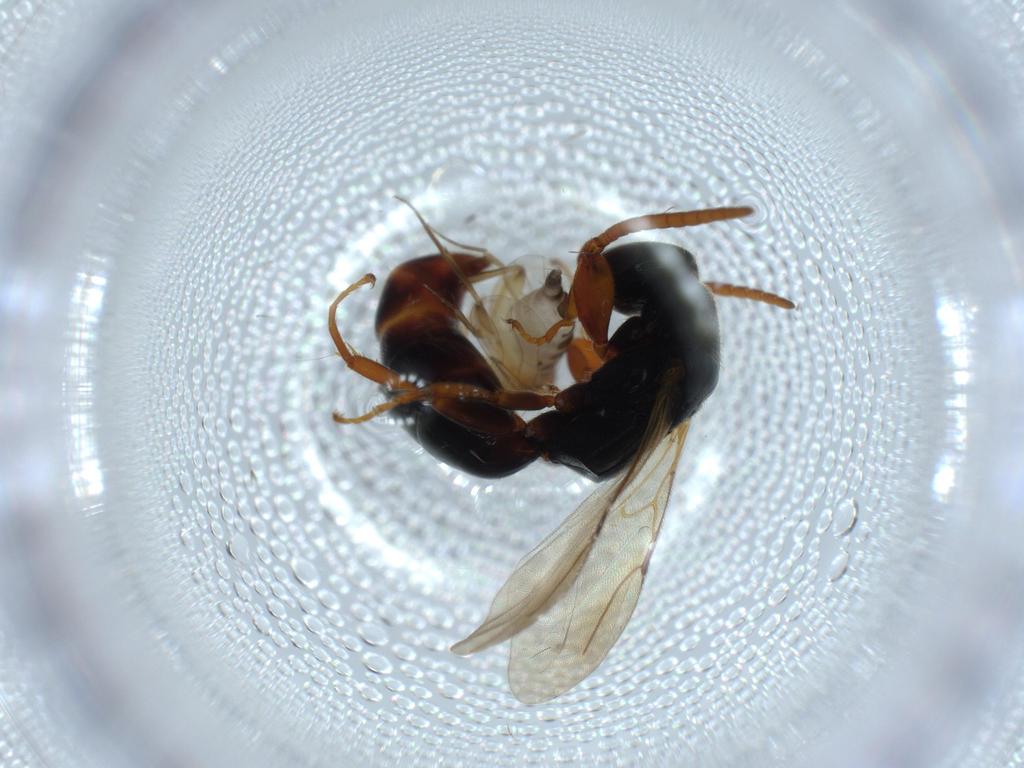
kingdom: Animalia
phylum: Arthropoda
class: Insecta
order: Hymenoptera
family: Bethylidae
